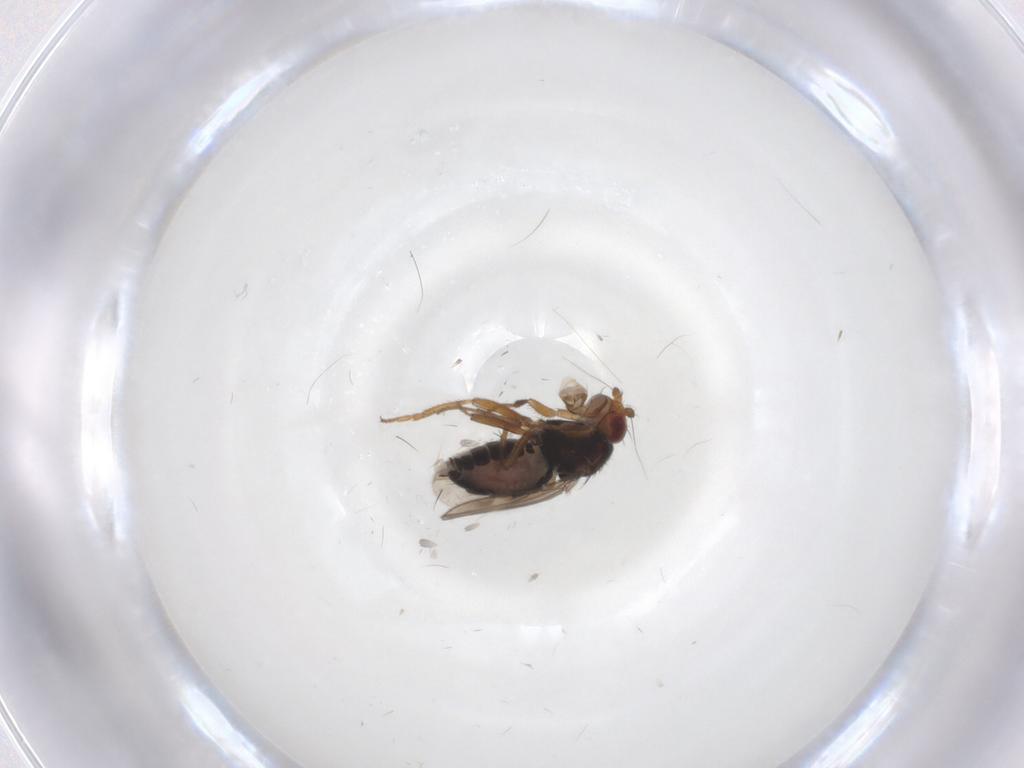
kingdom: Animalia
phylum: Arthropoda
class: Insecta
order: Diptera
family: Sphaeroceridae
